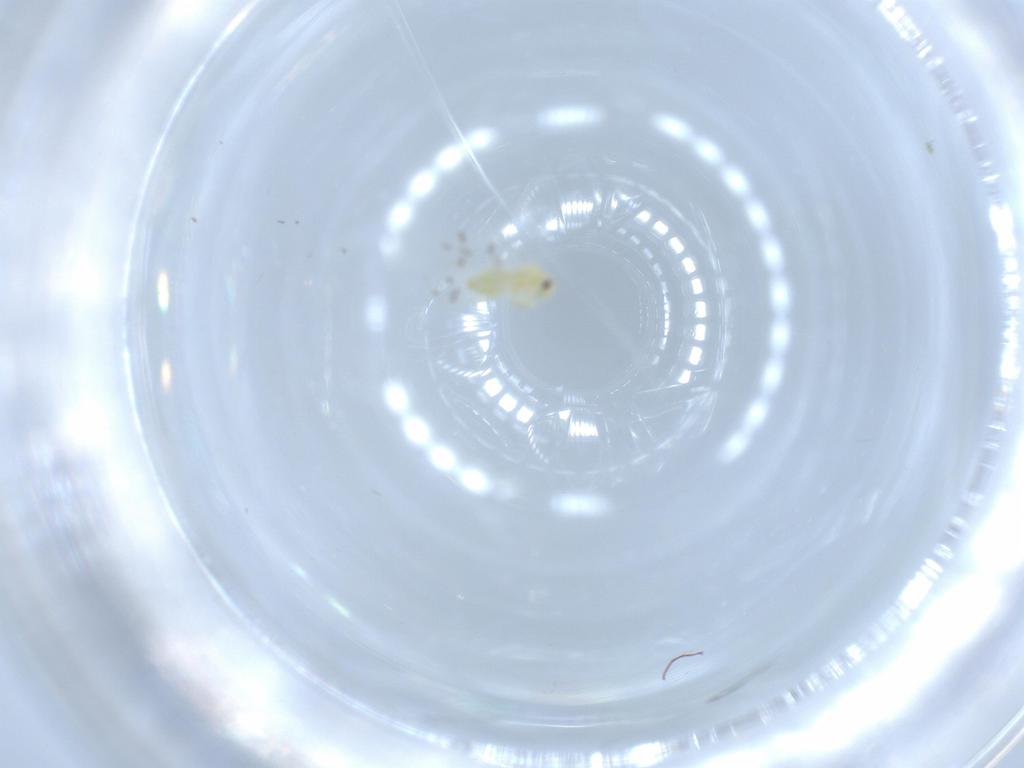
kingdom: Animalia
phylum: Arthropoda
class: Insecta
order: Hemiptera
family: Aleyrodidae
